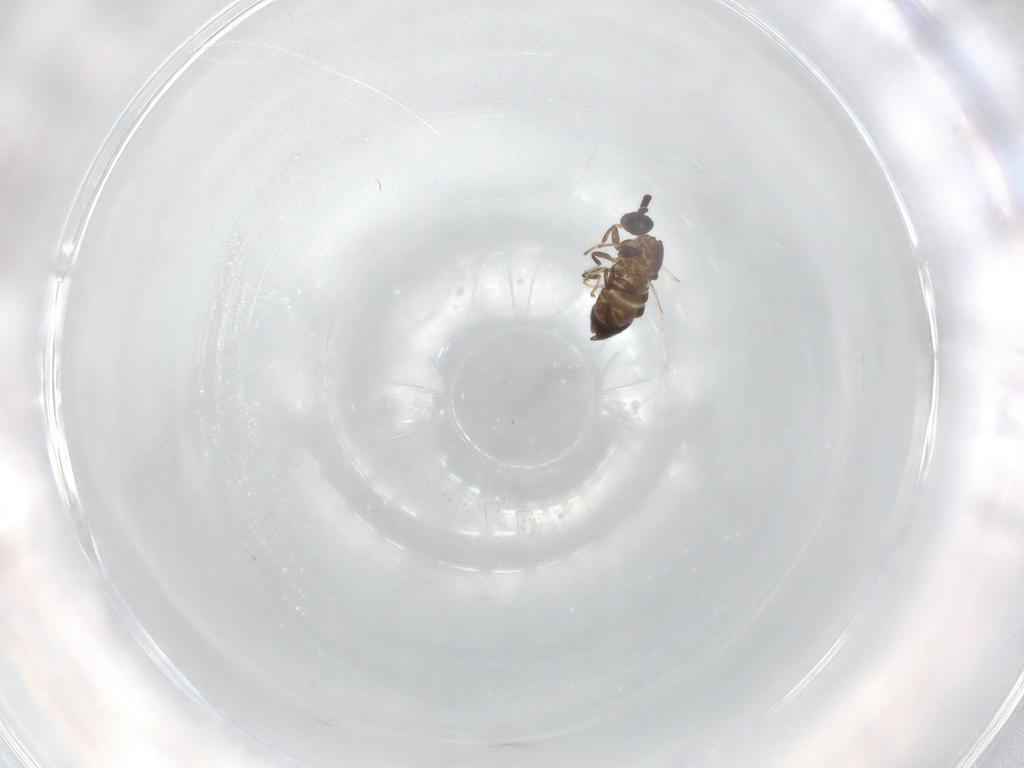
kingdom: Animalia
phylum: Arthropoda
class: Insecta
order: Diptera
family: Scatopsidae
